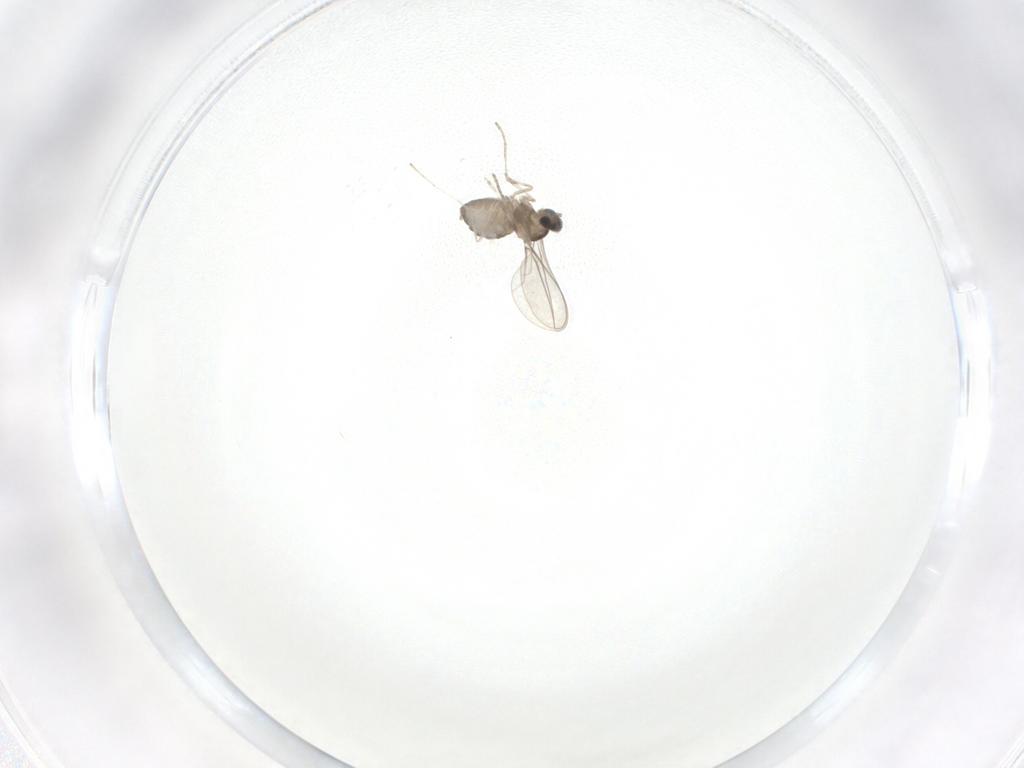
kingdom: Animalia
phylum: Arthropoda
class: Insecta
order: Diptera
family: Cecidomyiidae
